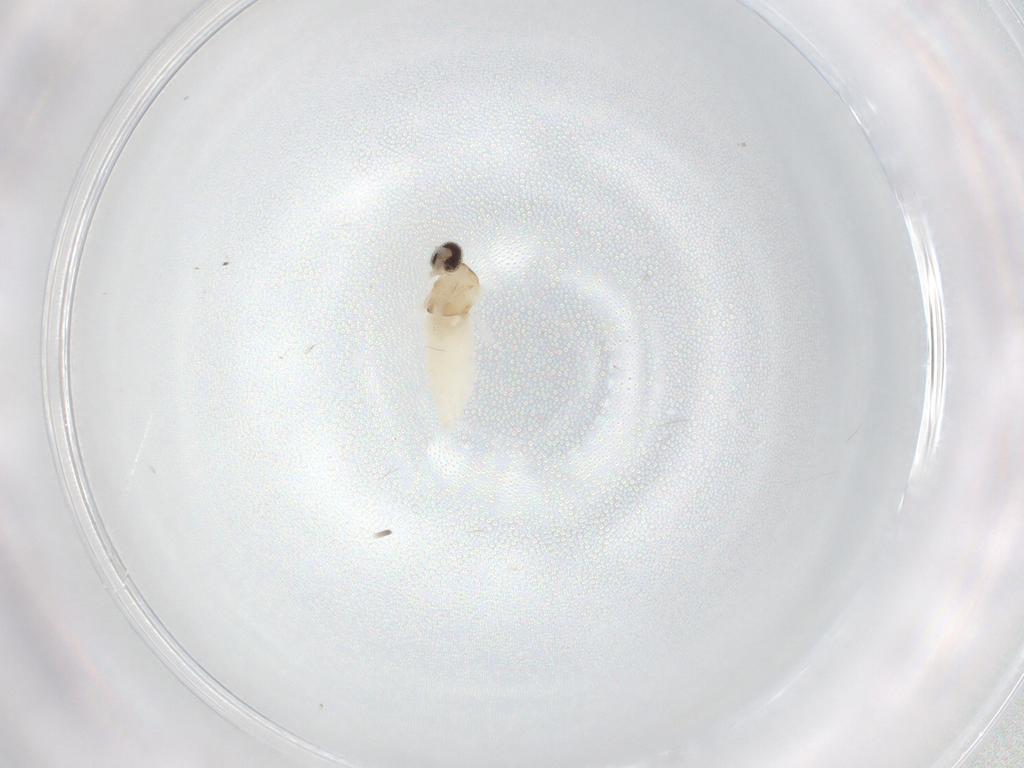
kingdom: Animalia
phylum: Arthropoda
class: Insecta
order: Diptera
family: Cecidomyiidae
